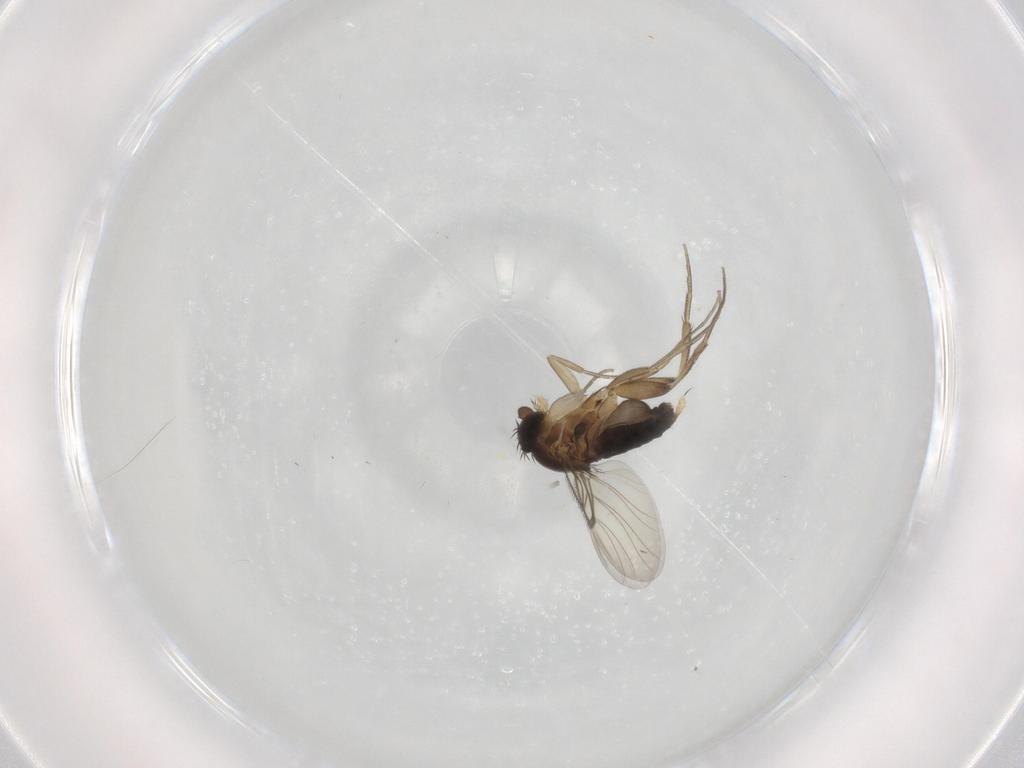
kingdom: Animalia
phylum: Arthropoda
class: Insecta
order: Diptera
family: Phoridae
